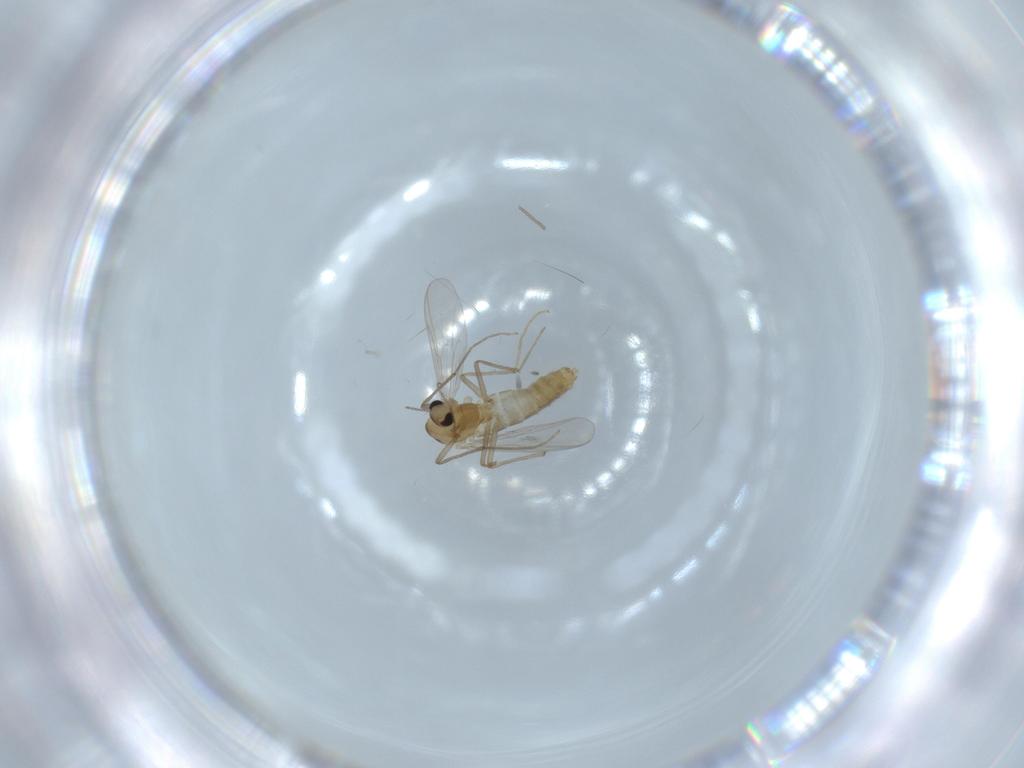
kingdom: Animalia
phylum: Arthropoda
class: Insecta
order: Diptera
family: Chironomidae
